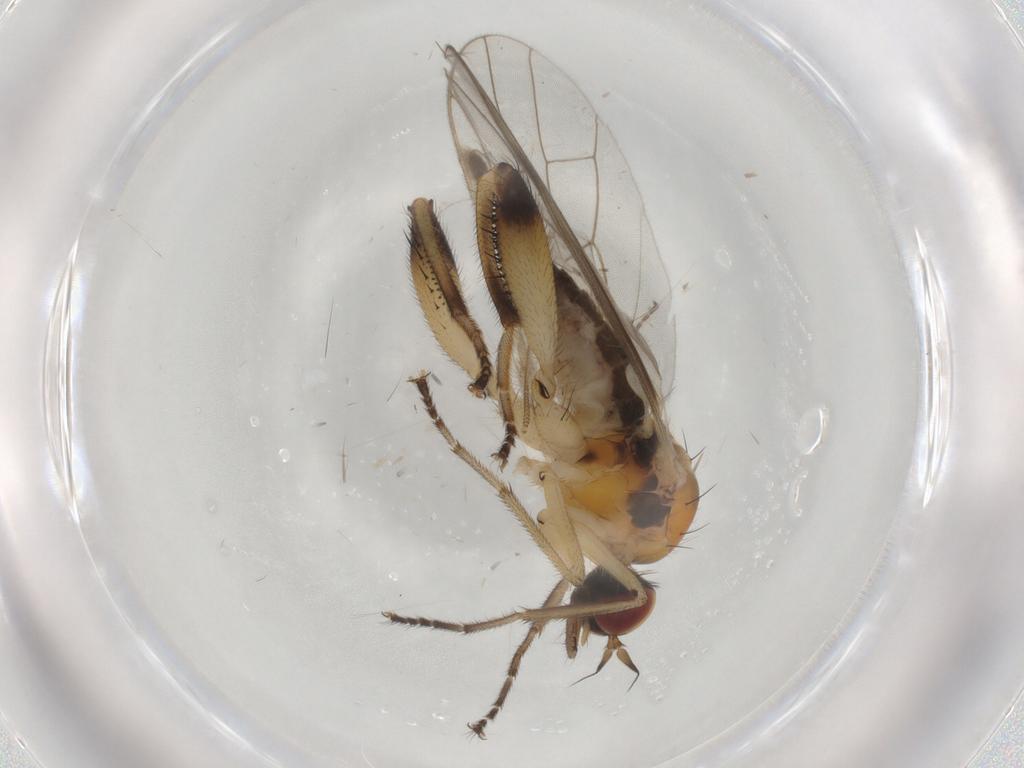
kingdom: Animalia
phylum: Arthropoda
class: Insecta
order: Diptera
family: Hybotidae
